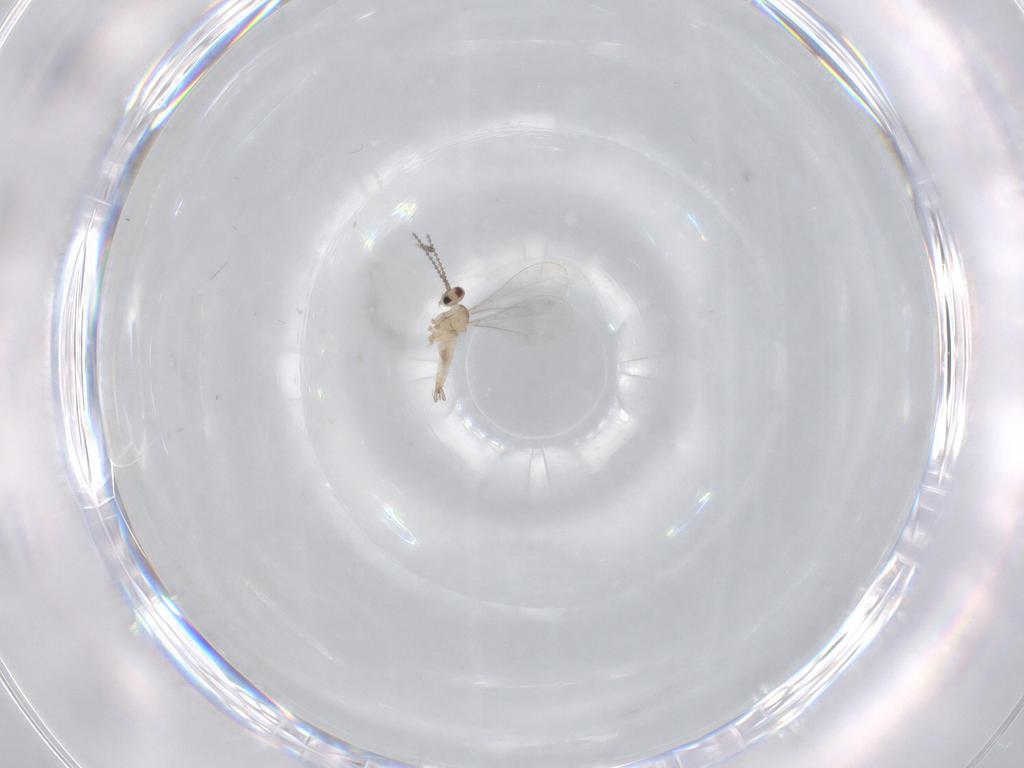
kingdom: Animalia
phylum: Arthropoda
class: Insecta
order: Diptera
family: Cecidomyiidae
